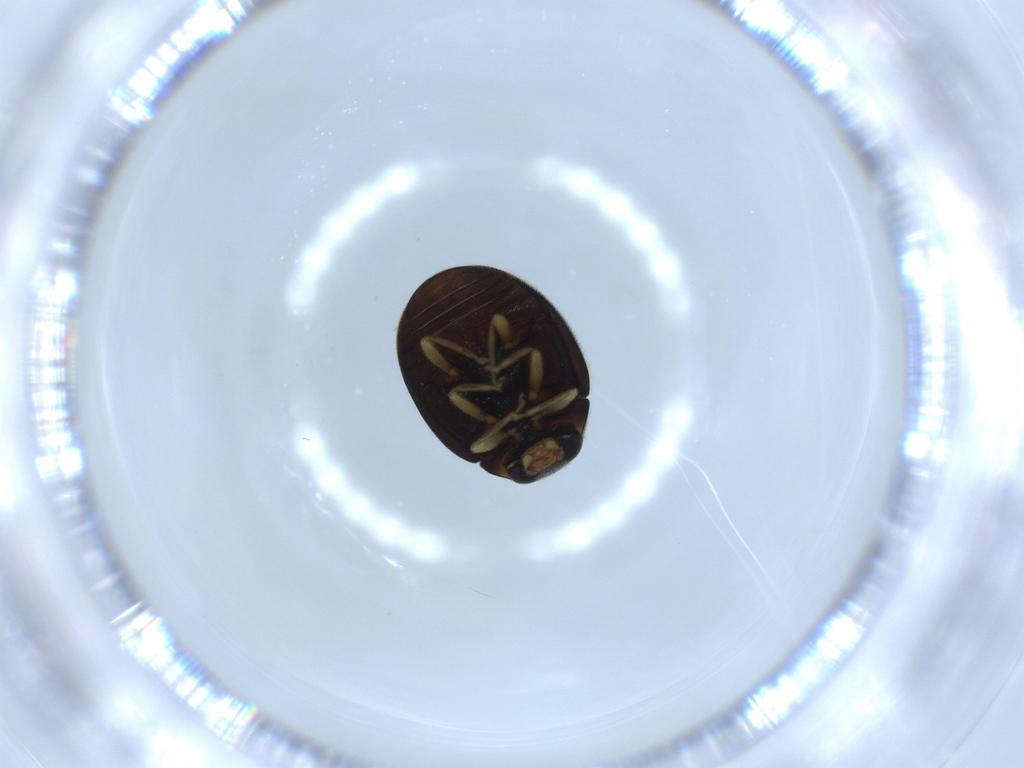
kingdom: Animalia
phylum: Arthropoda
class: Insecta
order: Coleoptera
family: Coccinellidae
